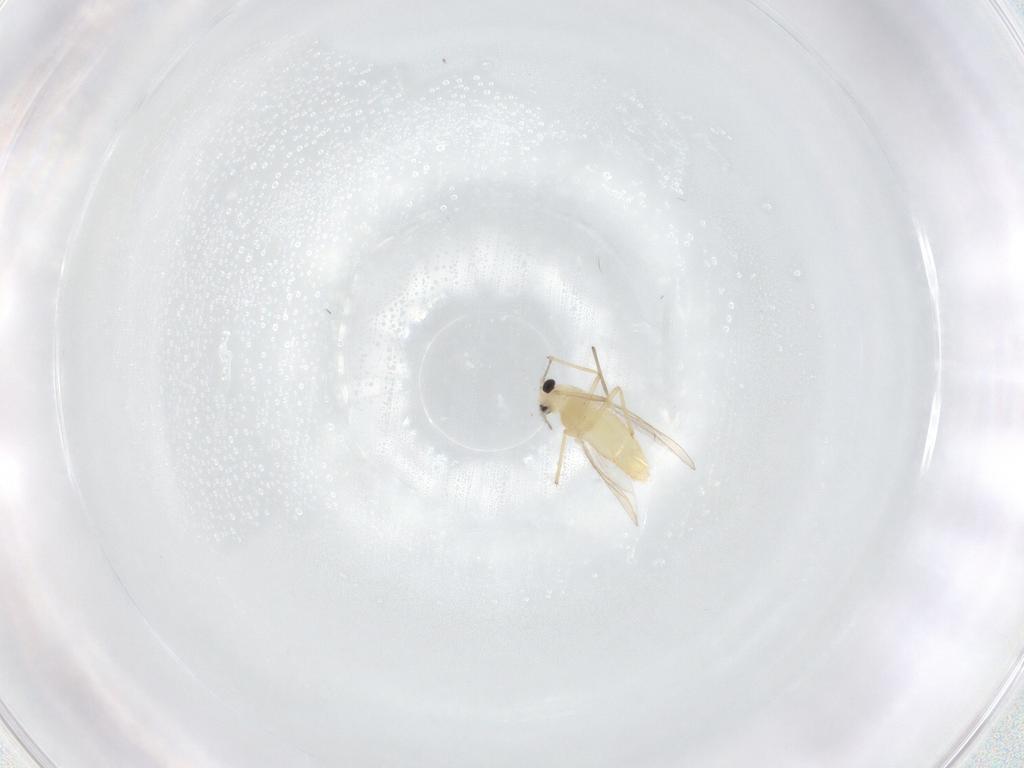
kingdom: Animalia
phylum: Arthropoda
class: Insecta
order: Diptera
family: Chironomidae
